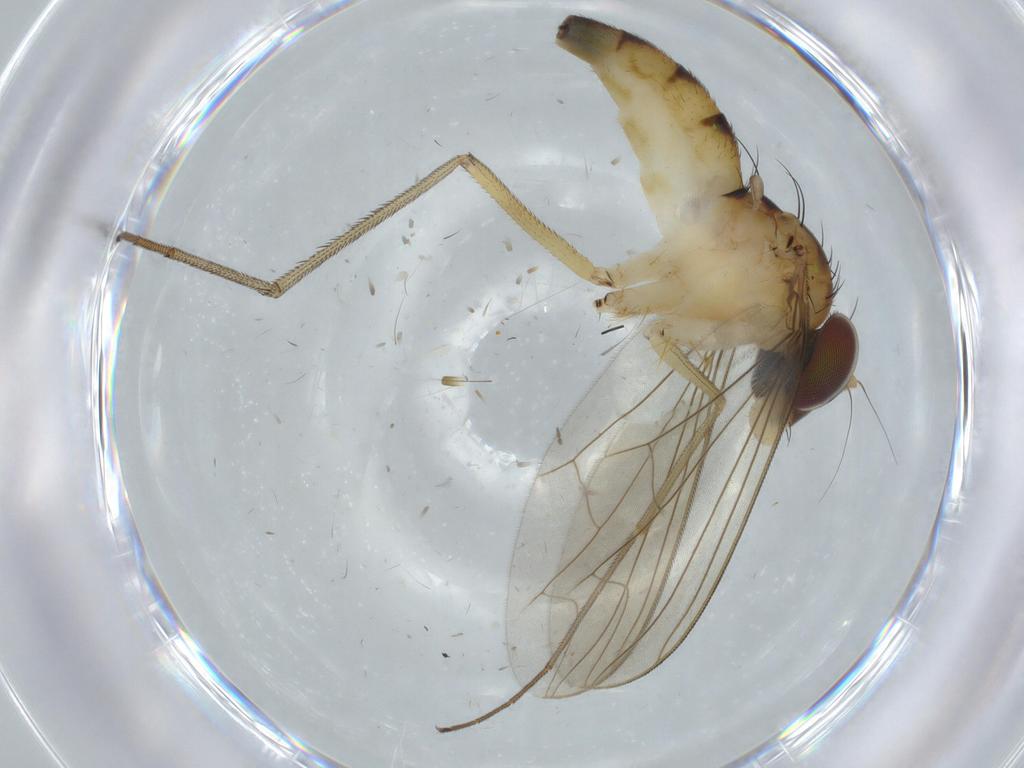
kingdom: Animalia
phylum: Arthropoda
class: Insecta
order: Diptera
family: Dolichopodidae
